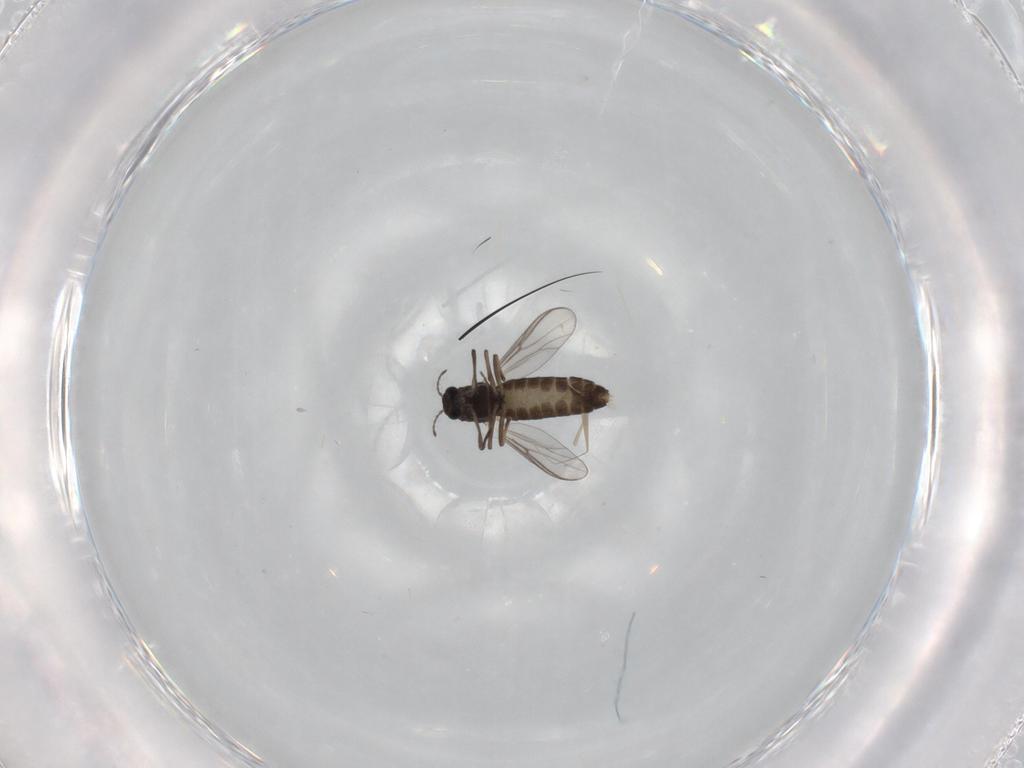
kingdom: Animalia
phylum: Arthropoda
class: Insecta
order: Diptera
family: Chironomidae
